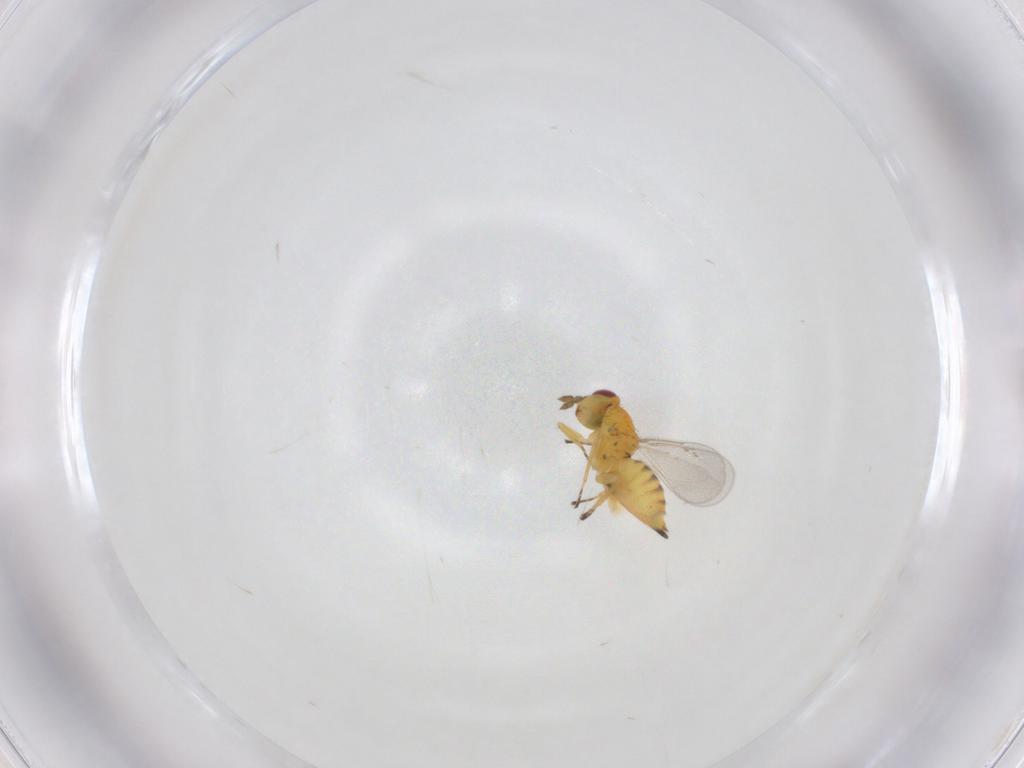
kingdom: Animalia
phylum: Arthropoda
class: Insecta
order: Hymenoptera
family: Eulophidae
